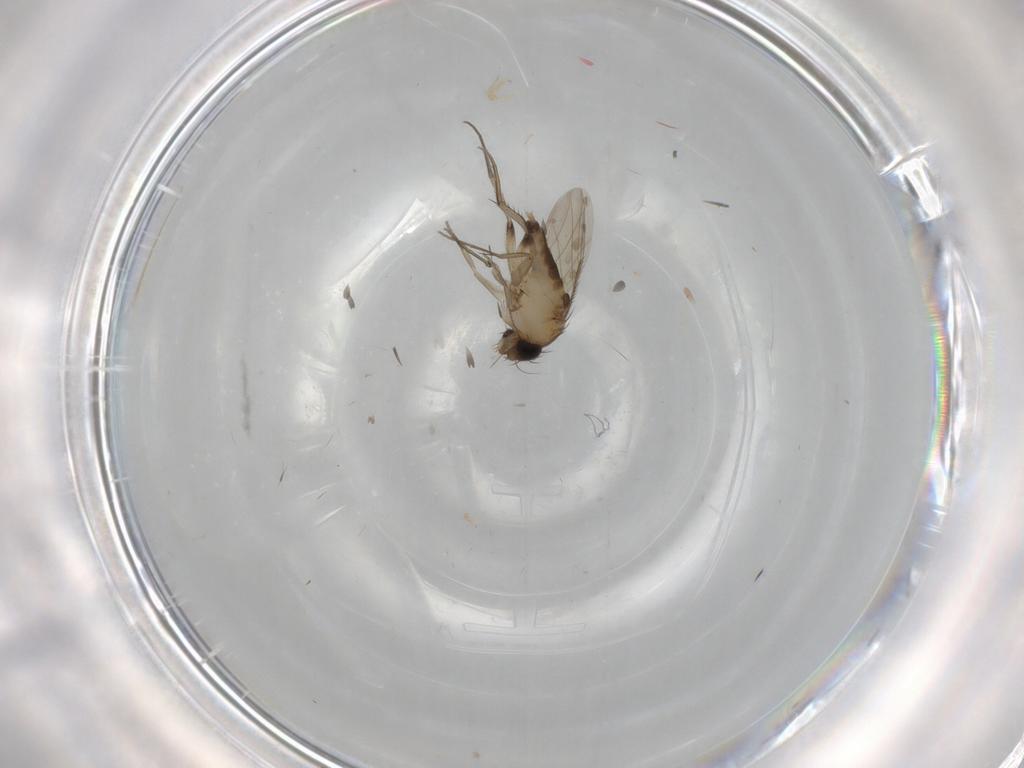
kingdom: Animalia
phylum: Arthropoda
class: Insecta
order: Diptera
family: Phoridae
